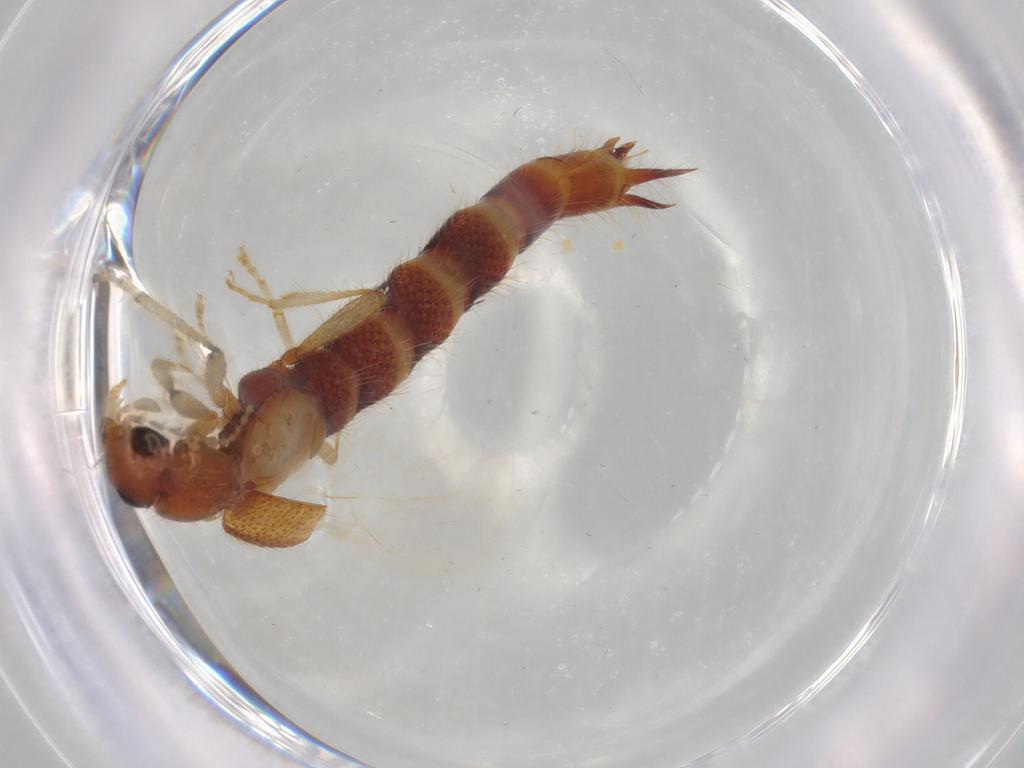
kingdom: Animalia
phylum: Arthropoda
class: Insecta
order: Coleoptera
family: Staphylinidae
